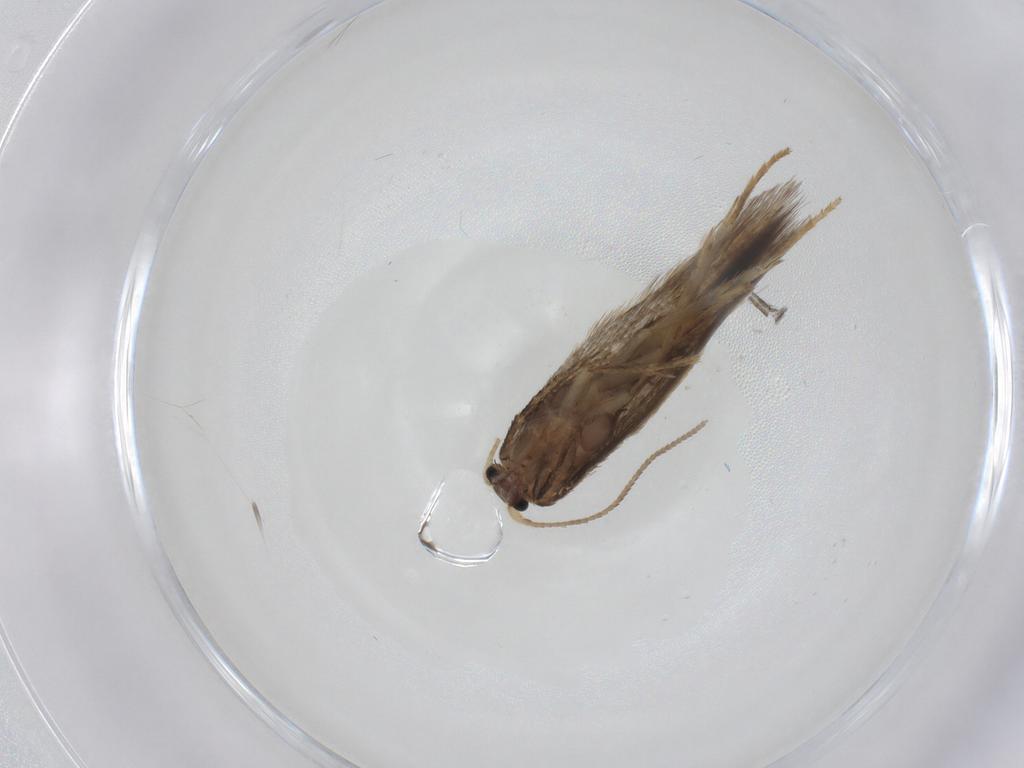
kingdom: Animalia
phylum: Arthropoda
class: Insecta
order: Lepidoptera
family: Nepticulidae
